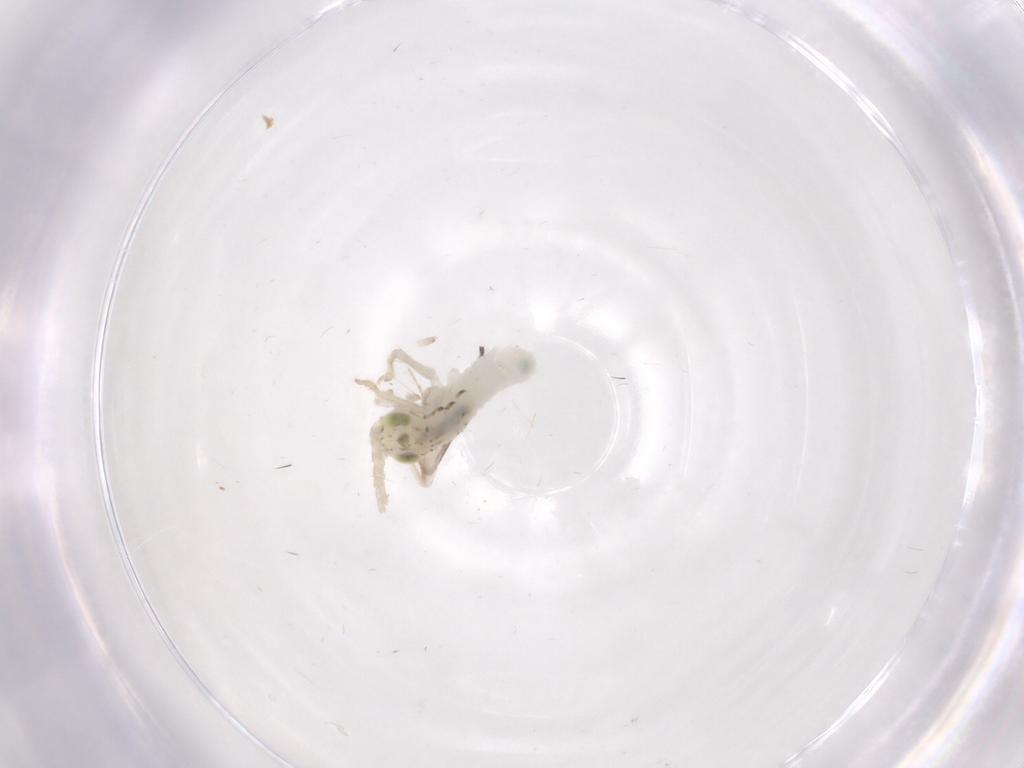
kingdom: Animalia
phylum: Arthropoda
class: Insecta
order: Orthoptera
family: Trigonidiidae
